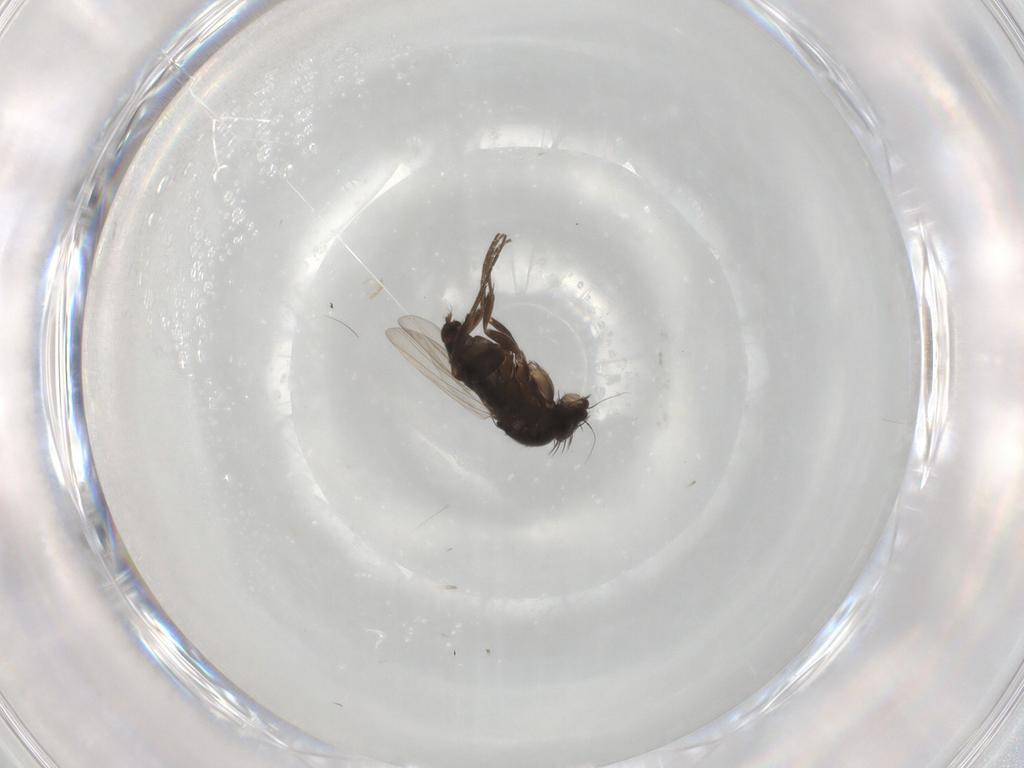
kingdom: Animalia
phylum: Arthropoda
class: Insecta
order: Diptera
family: Phoridae
